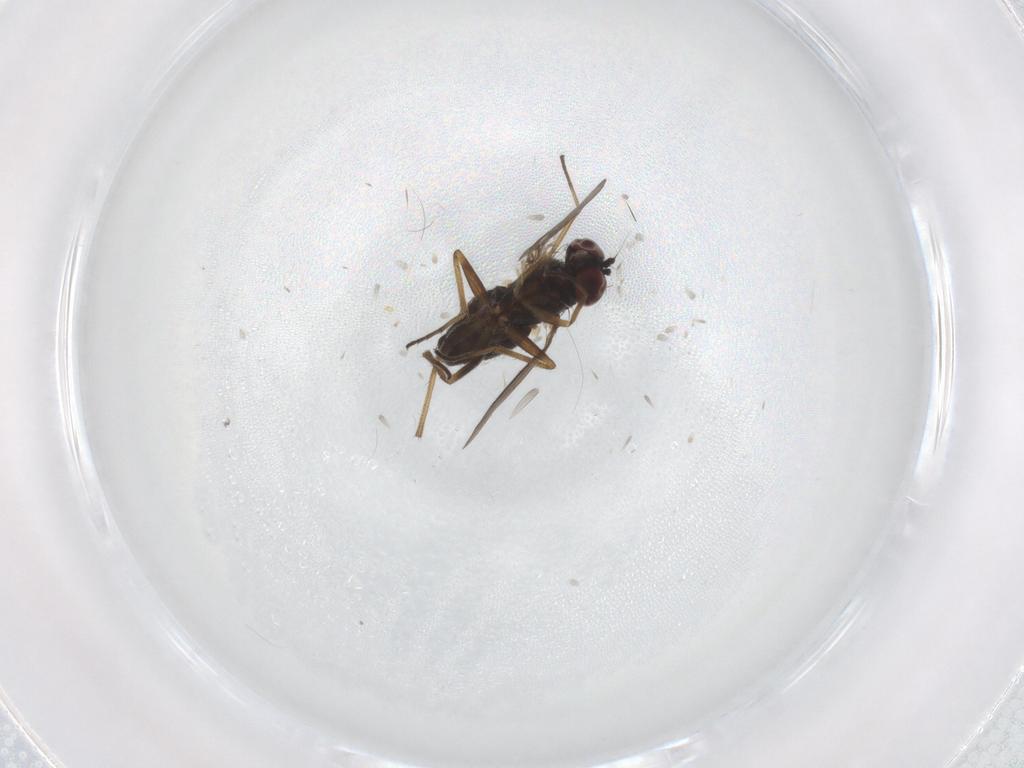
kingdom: Animalia
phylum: Arthropoda
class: Insecta
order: Diptera
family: Dolichopodidae
